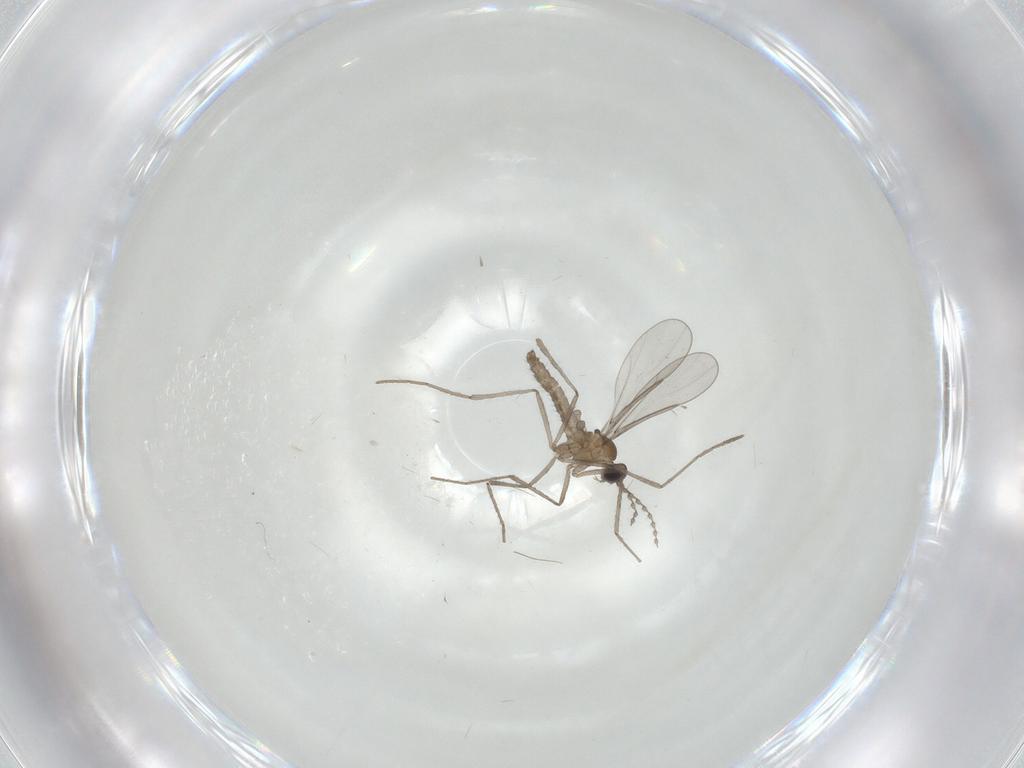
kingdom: Animalia
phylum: Arthropoda
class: Insecta
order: Diptera
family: Cecidomyiidae
